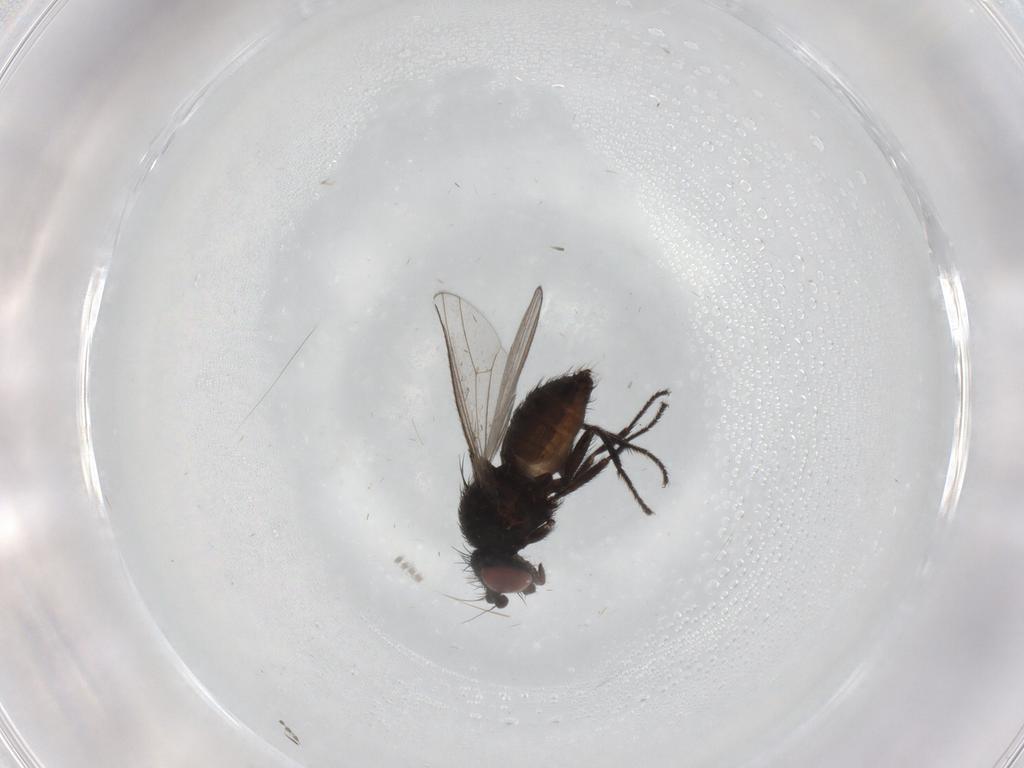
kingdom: Animalia
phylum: Arthropoda
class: Insecta
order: Diptera
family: Psychodidae
